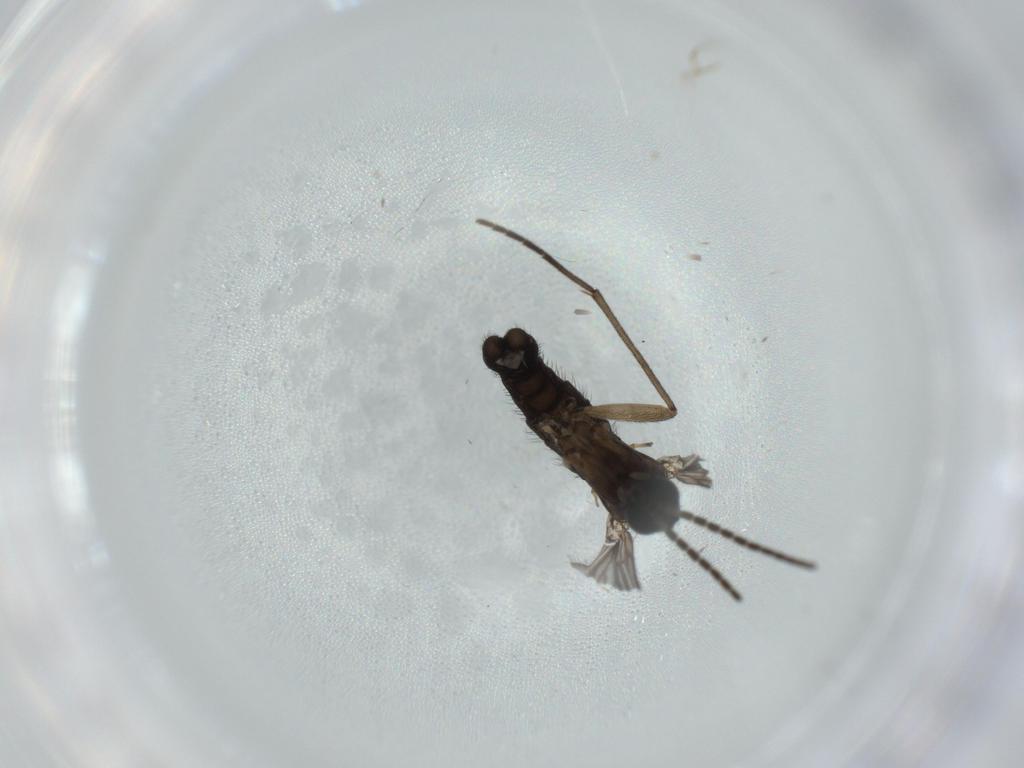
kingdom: Animalia
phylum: Arthropoda
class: Insecta
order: Diptera
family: Sciaridae
